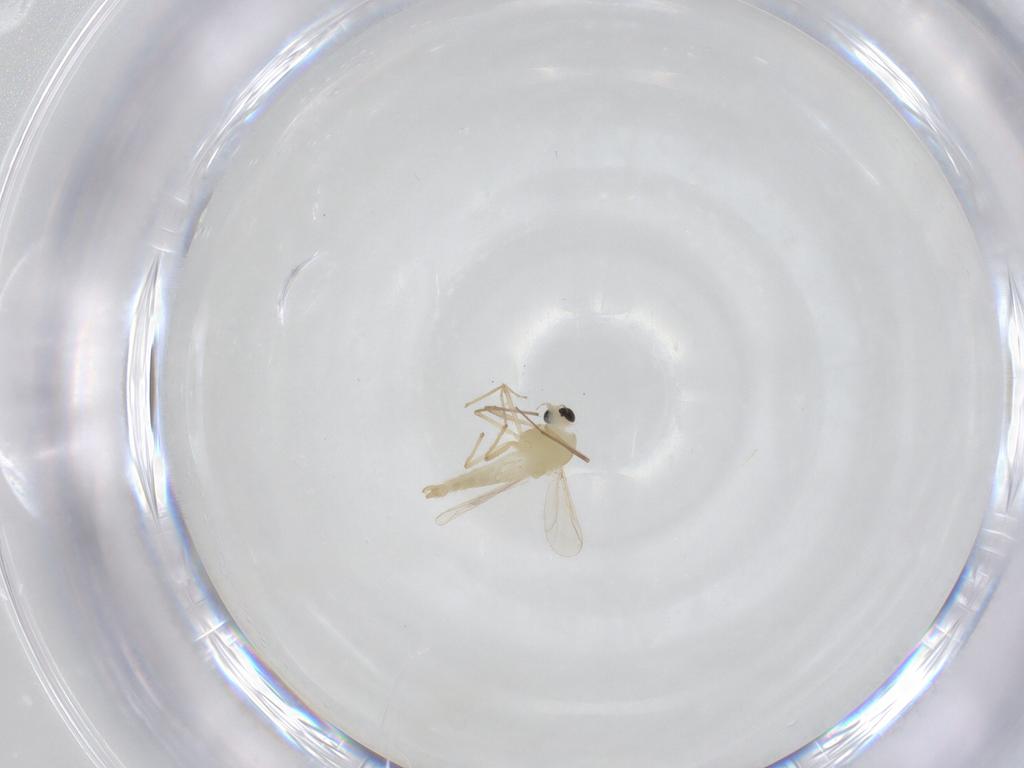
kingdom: Animalia
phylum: Arthropoda
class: Insecta
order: Diptera
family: Chironomidae
